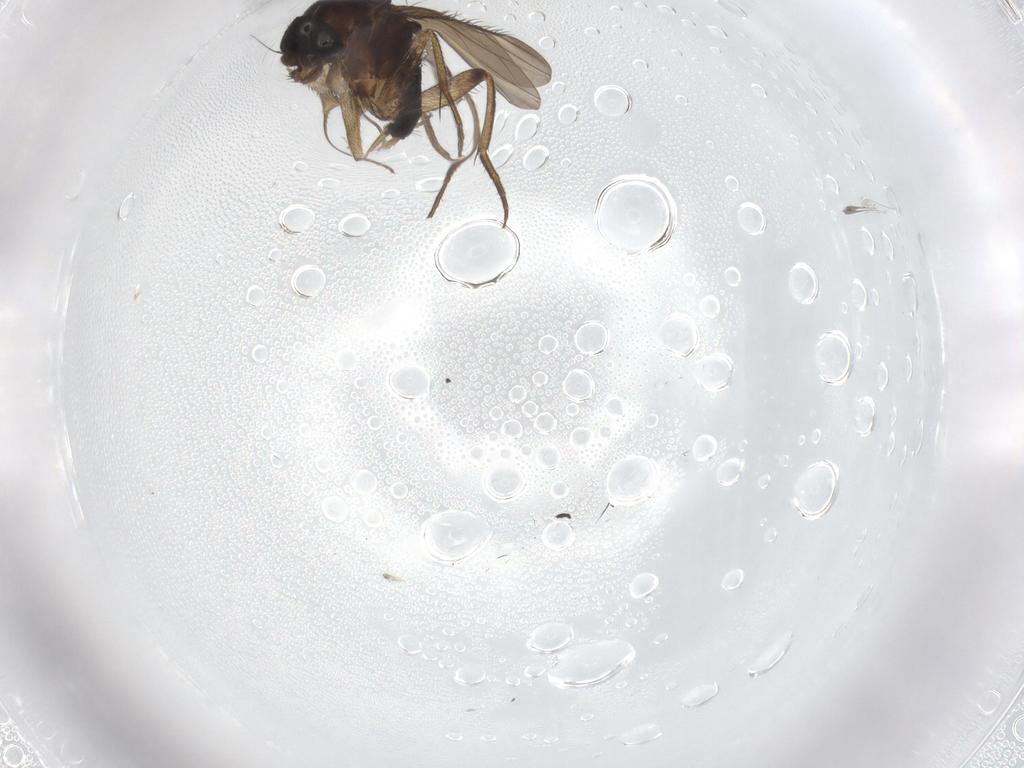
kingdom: Animalia
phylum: Arthropoda
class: Insecta
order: Diptera
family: Phoridae
